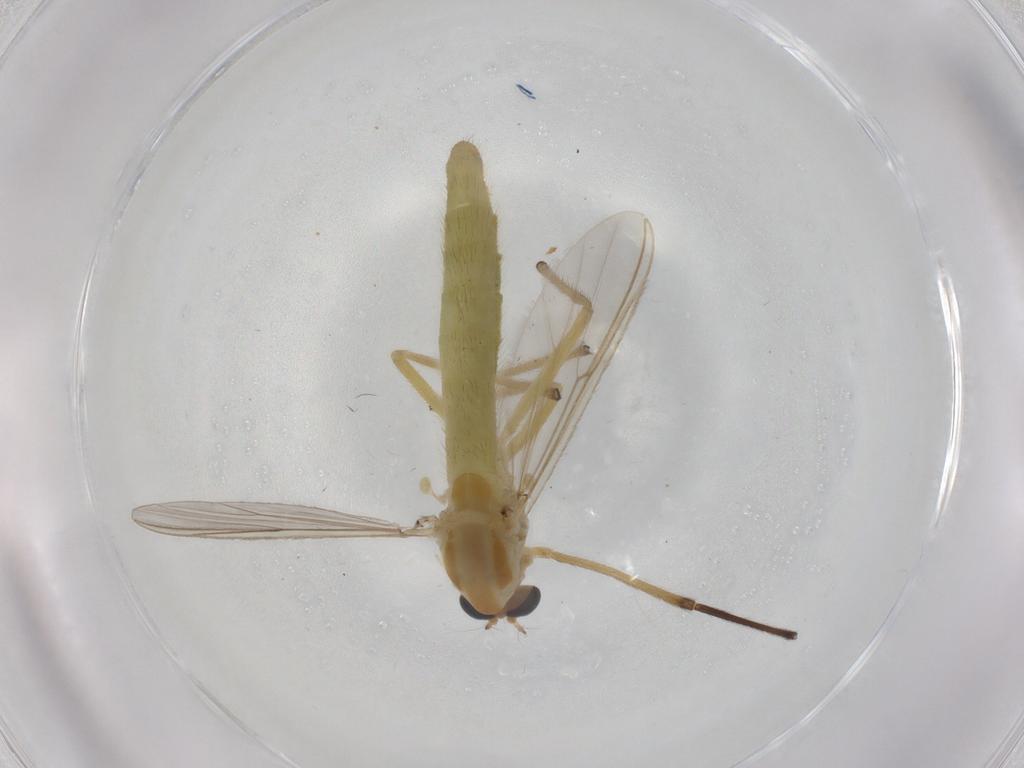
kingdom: Animalia
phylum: Arthropoda
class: Insecta
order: Diptera
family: Chironomidae
